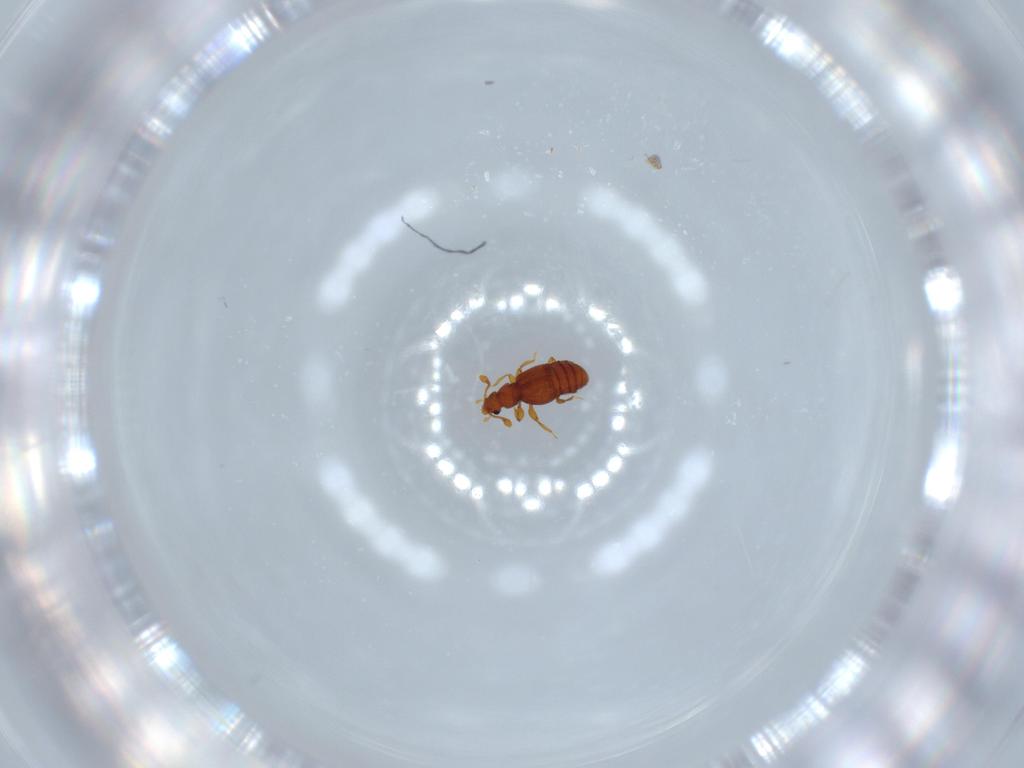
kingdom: Animalia
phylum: Arthropoda
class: Insecta
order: Coleoptera
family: Staphylinidae
